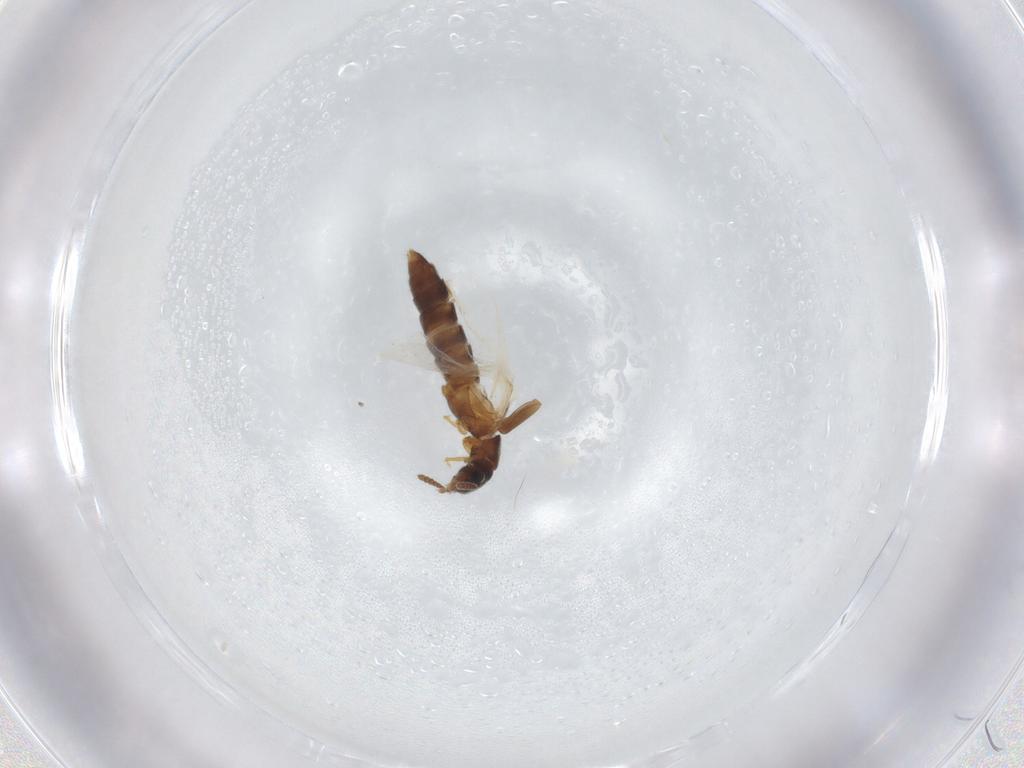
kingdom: Animalia
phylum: Arthropoda
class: Insecta
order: Coleoptera
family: Staphylinidae
